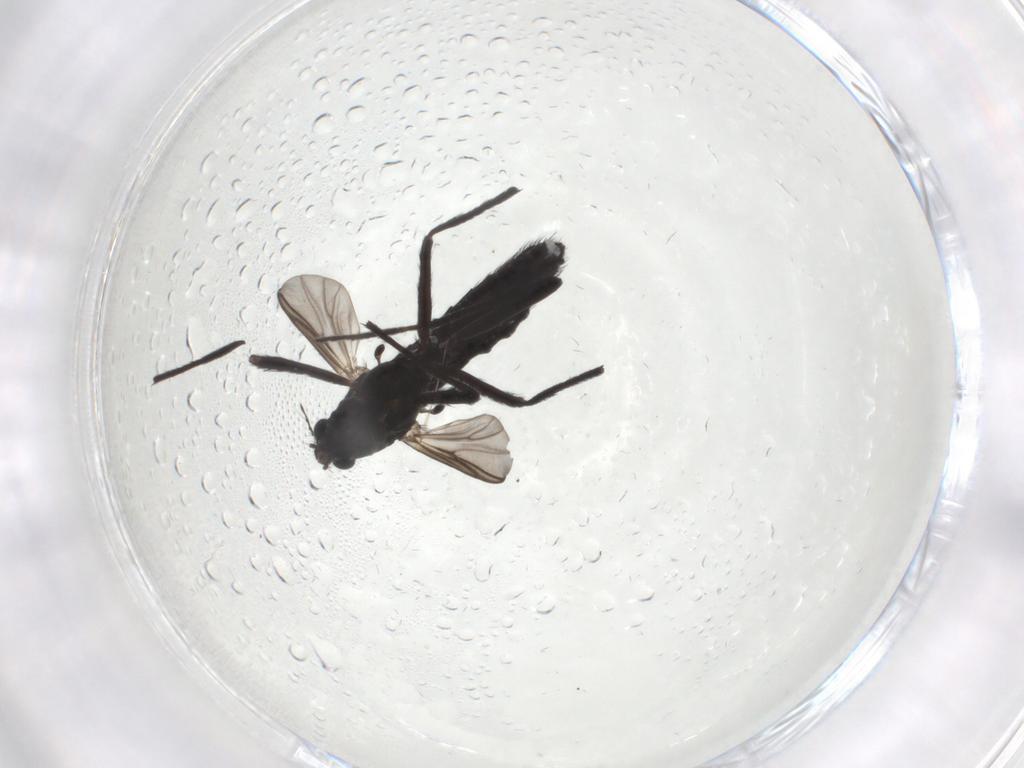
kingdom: Animalia
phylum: Arthropoda
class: Insecta
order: Diptera
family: Chironomidae
